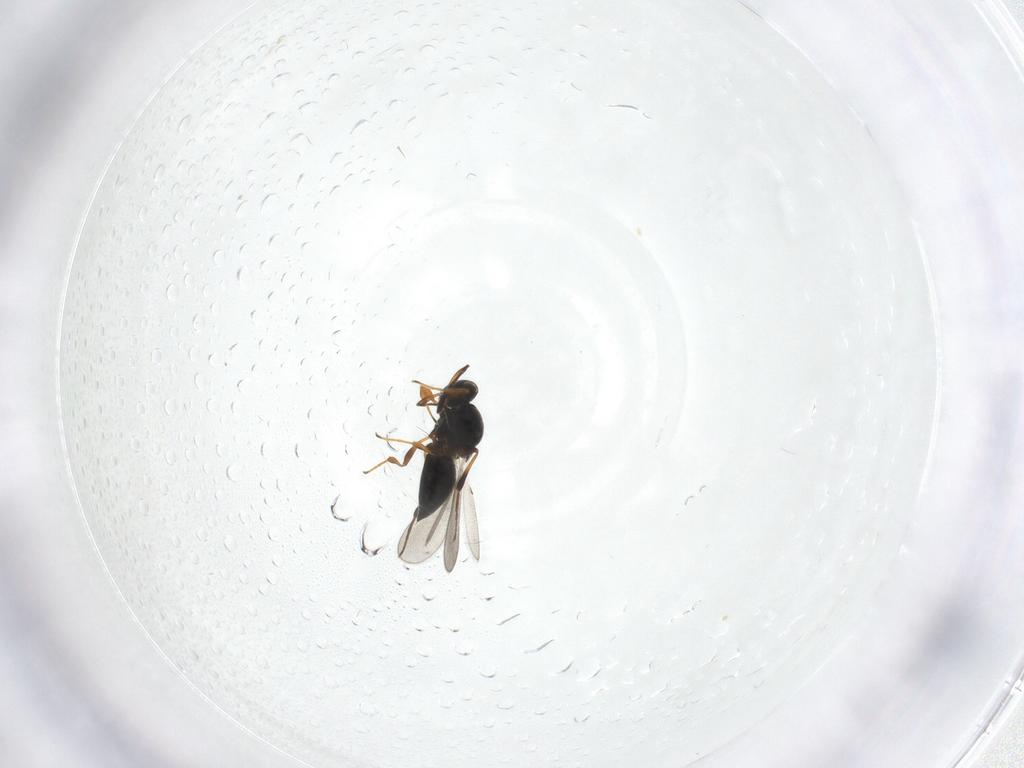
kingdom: Animalia
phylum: Arthropoda
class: Insecta
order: Hymenoptera
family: Platygastridae
